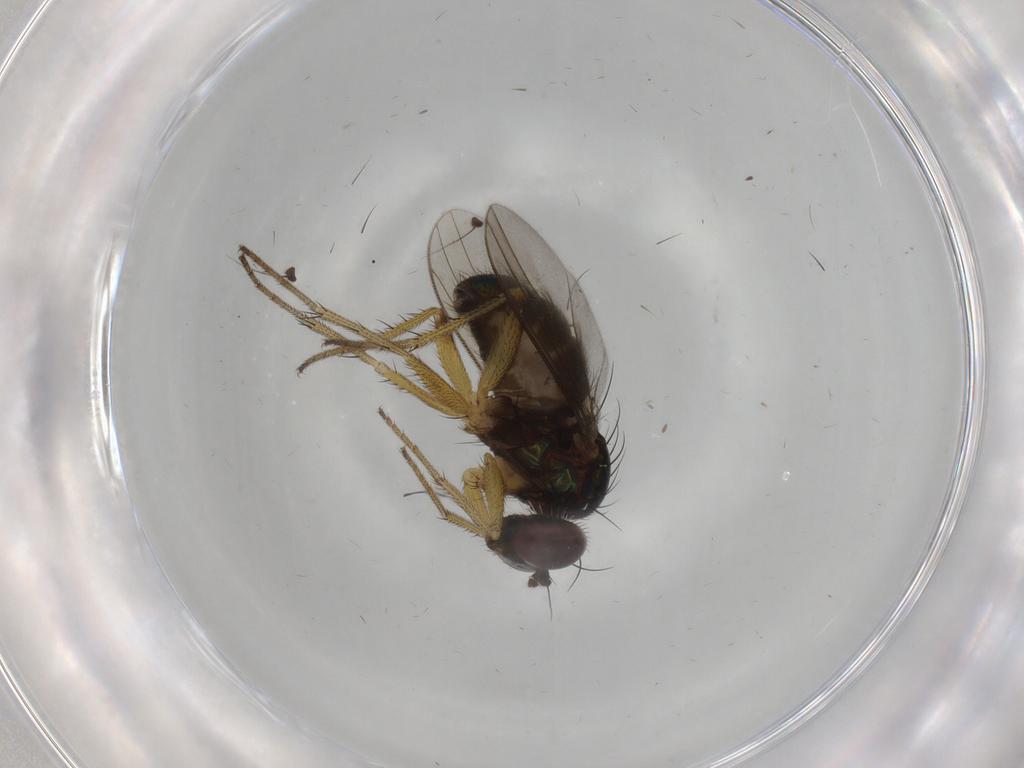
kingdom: Animalia
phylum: Arthropoda
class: Insecta
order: Diptera
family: Dolichopodidae
